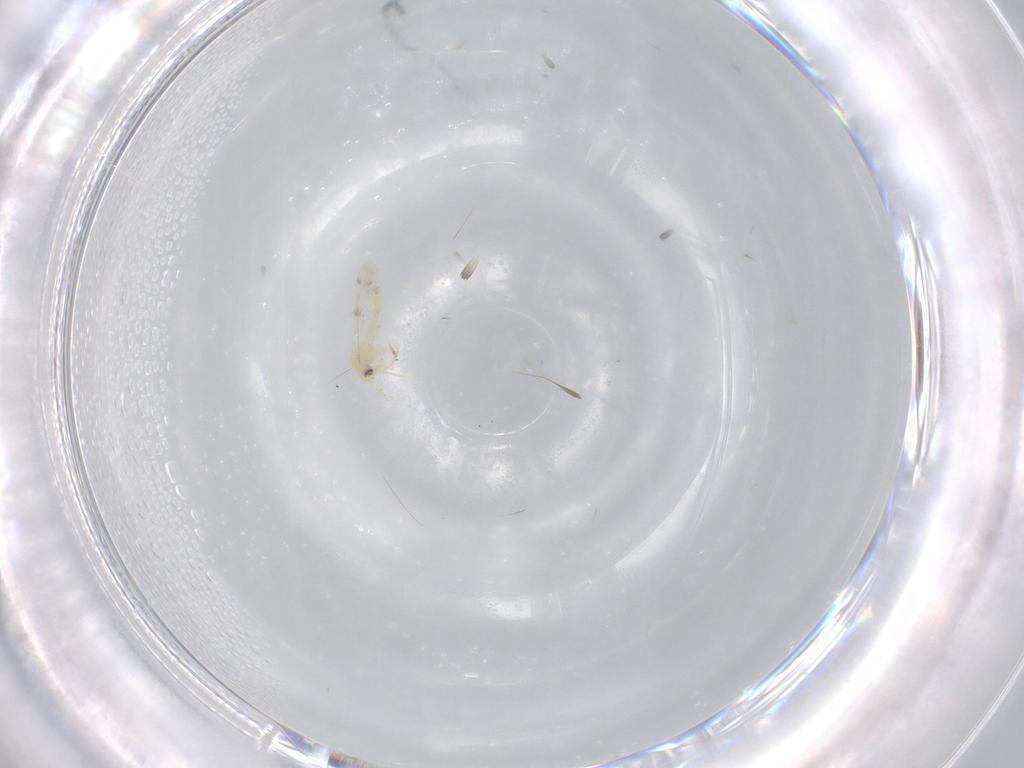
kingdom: Animalia
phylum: Arthropoda
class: Insecta
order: Hemiptera
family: Aleyrodidae
